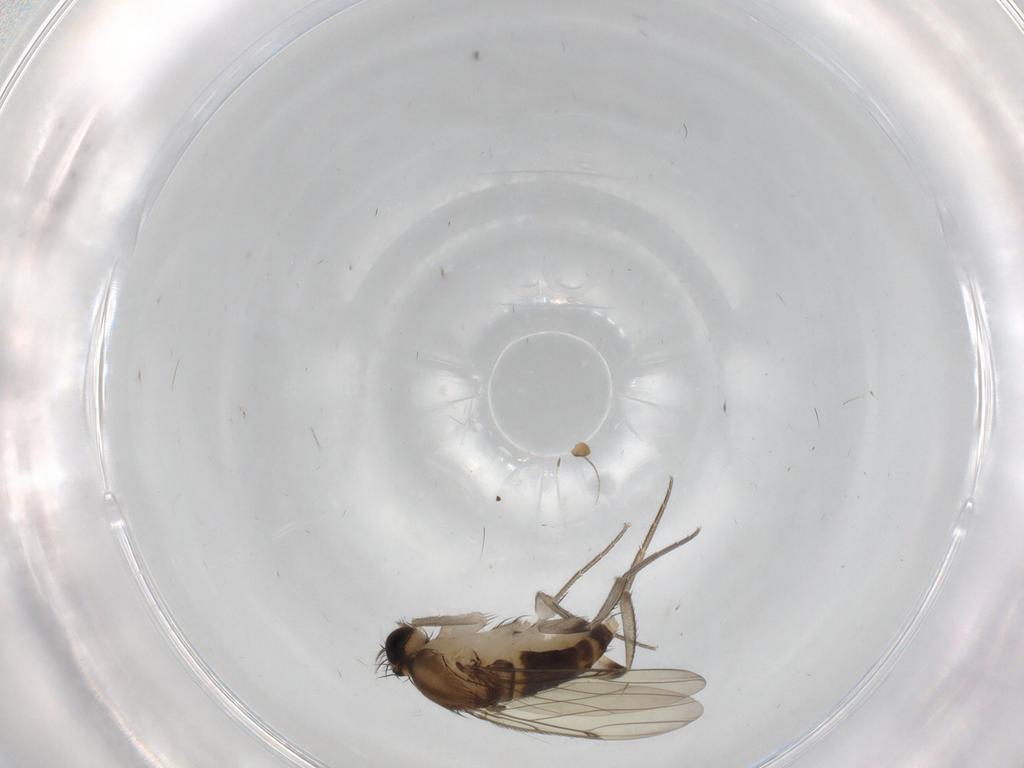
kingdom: Animalia
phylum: Arthropoda
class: Insecta
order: Diptera
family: Phoridae
